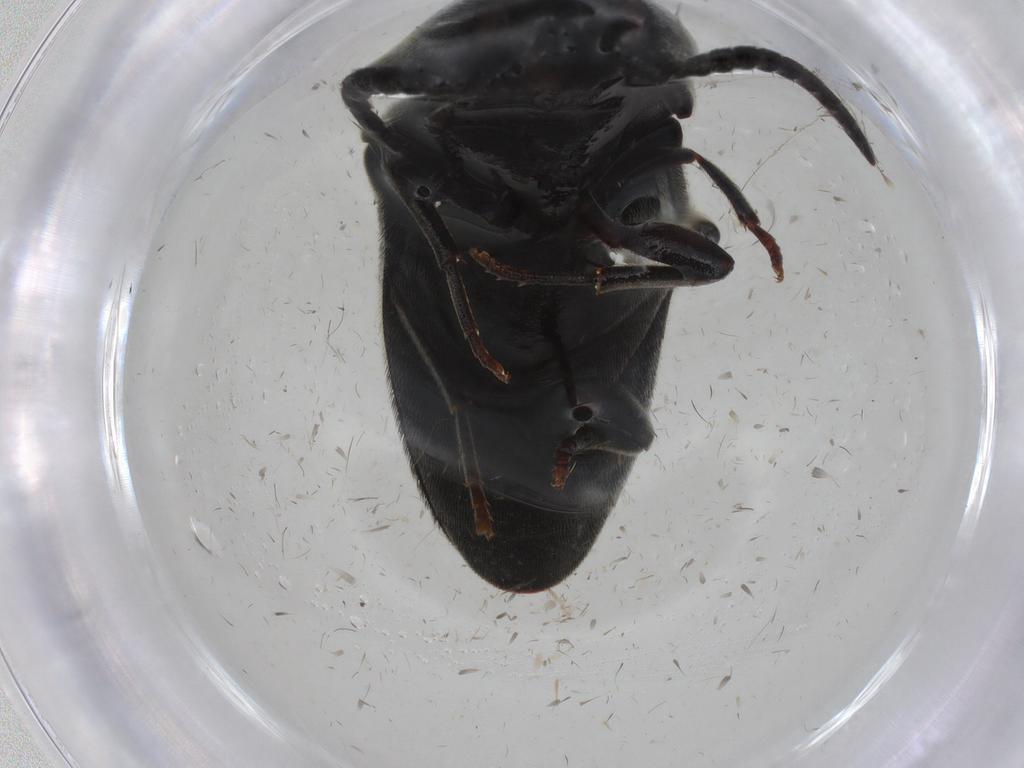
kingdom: Animalia
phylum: Arthropoda
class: Insecta
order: Coleoptera
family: Eucnemidae
